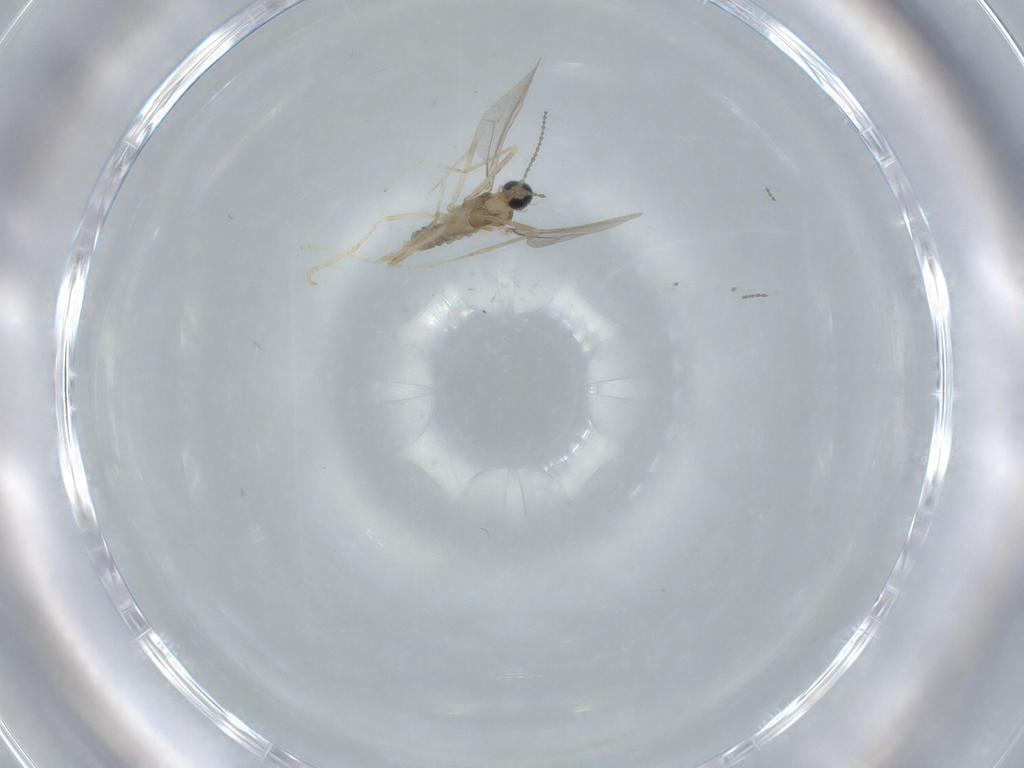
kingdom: Animalia
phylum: Arthropoda
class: Insecta
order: Diptera
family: Cecidomyiidae
